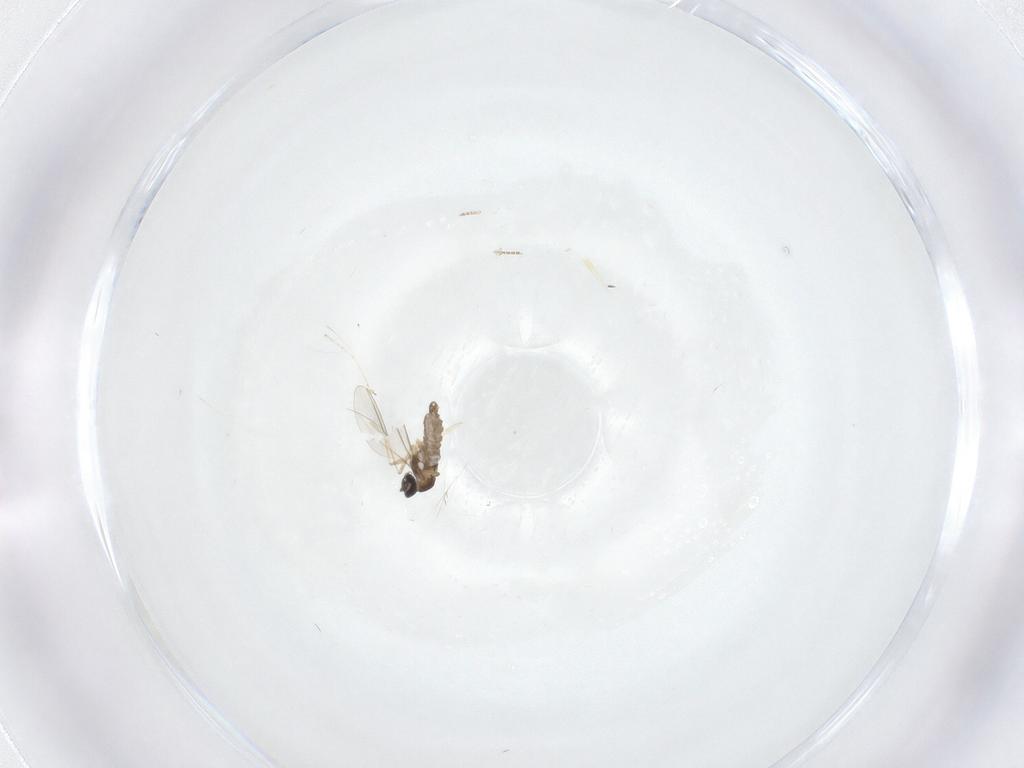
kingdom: Animalia
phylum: Arthropoda
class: Insecta
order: Diptera
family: Cecidomyiidae
